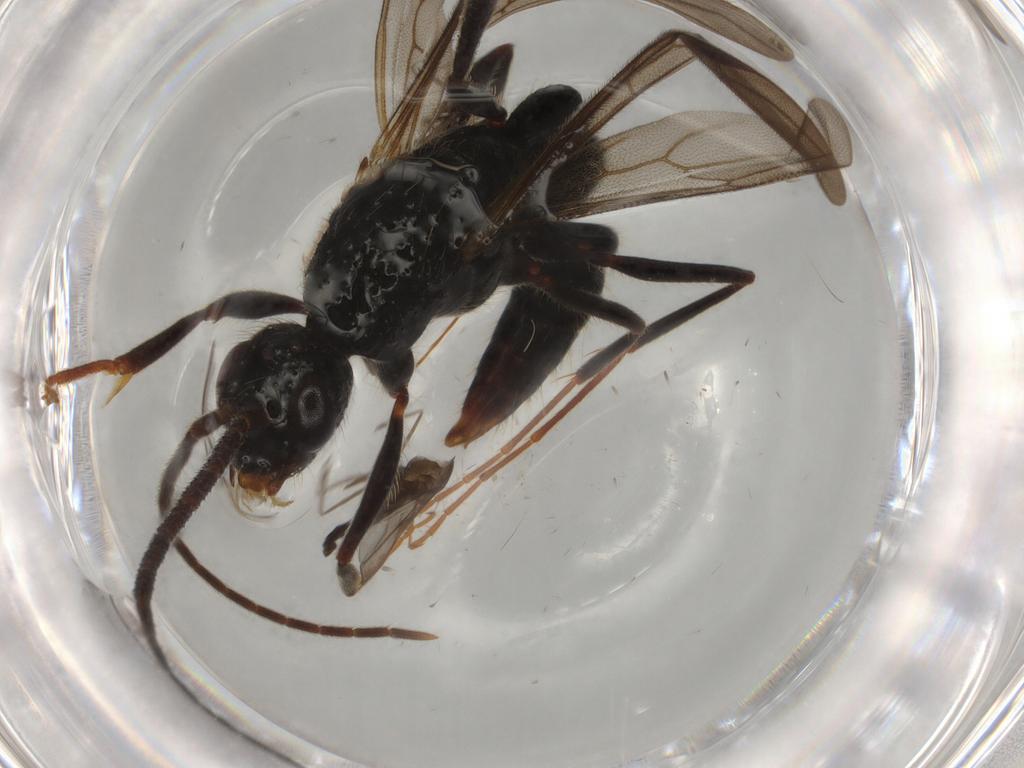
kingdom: Animalia
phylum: Arthropoda
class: Insecta
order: Hymenoptera
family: Formicidae
